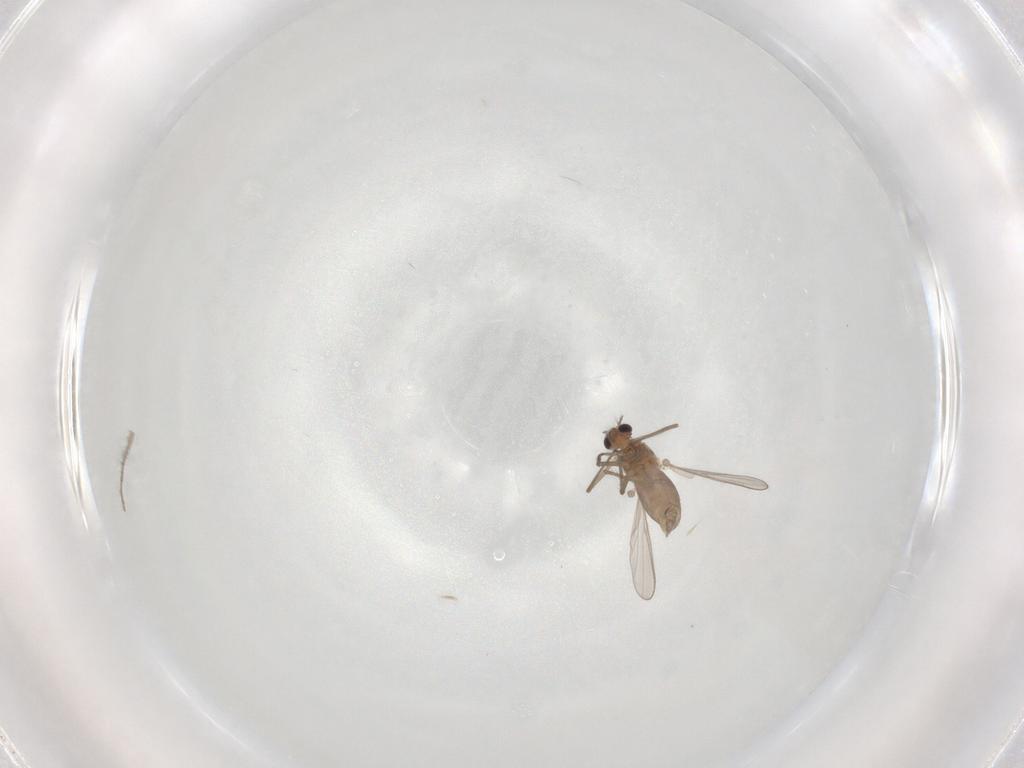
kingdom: Animalia
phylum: Arthropoda
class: Insecta
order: Diptera
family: Chironomidae
